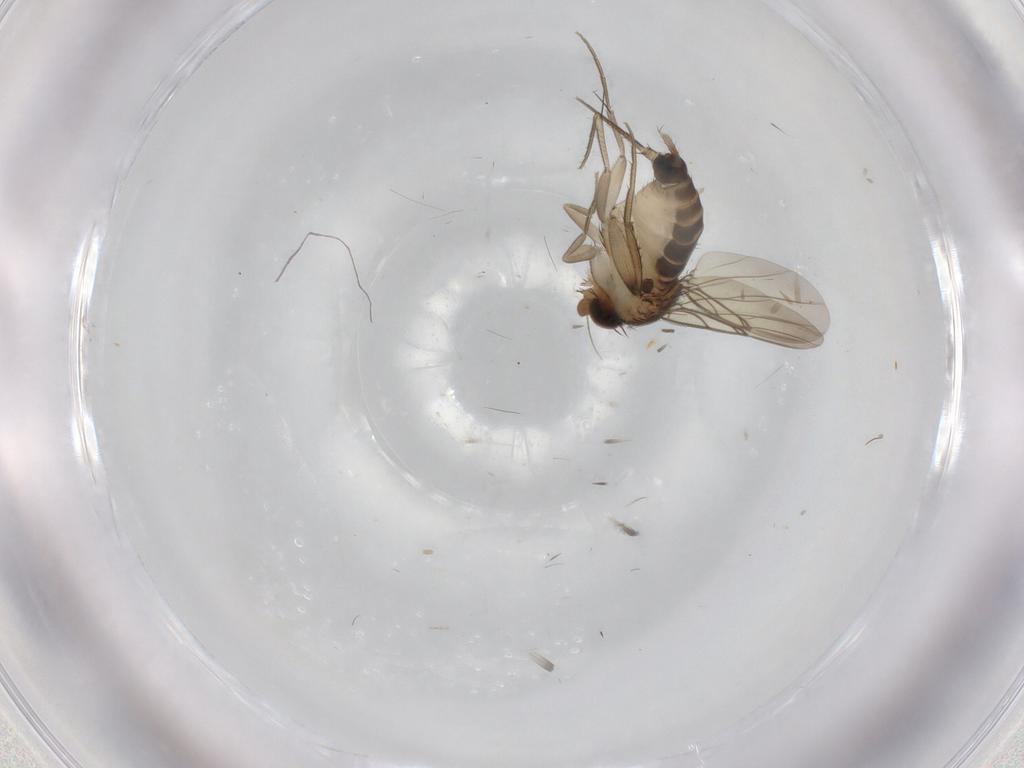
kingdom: Animalia
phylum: Arthropoda
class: Insecta
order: Diptera
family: Phoridae
